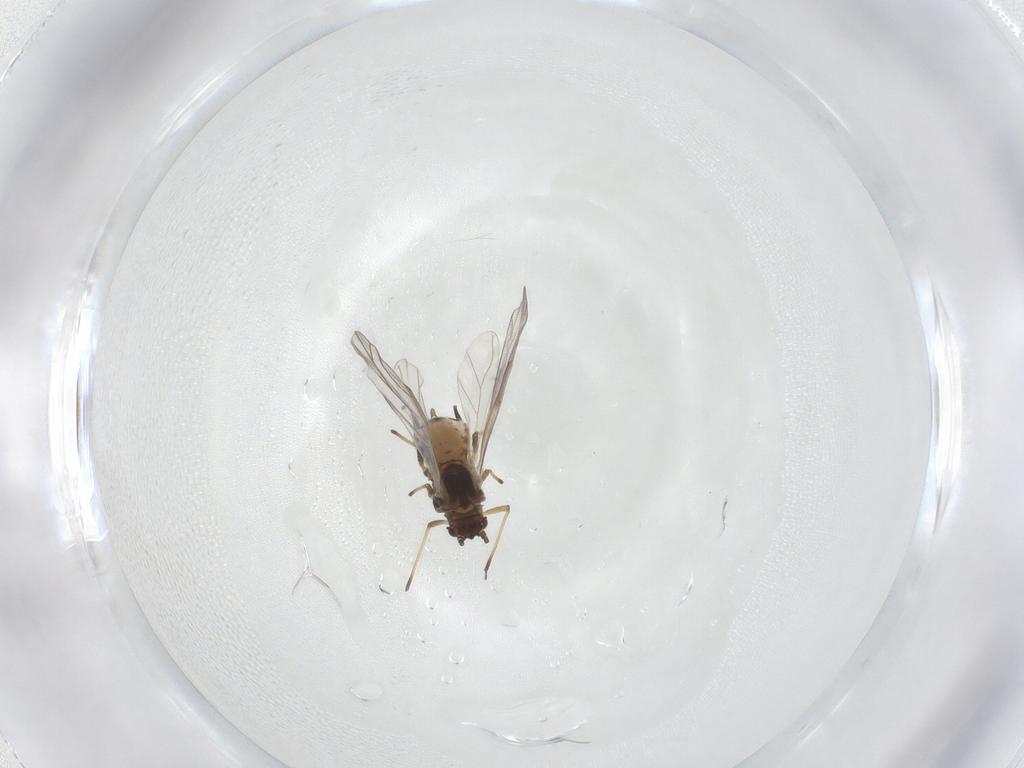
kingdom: Animalia
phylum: Arthropoda
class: Insecta
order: Hemiptera
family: Aphididae
